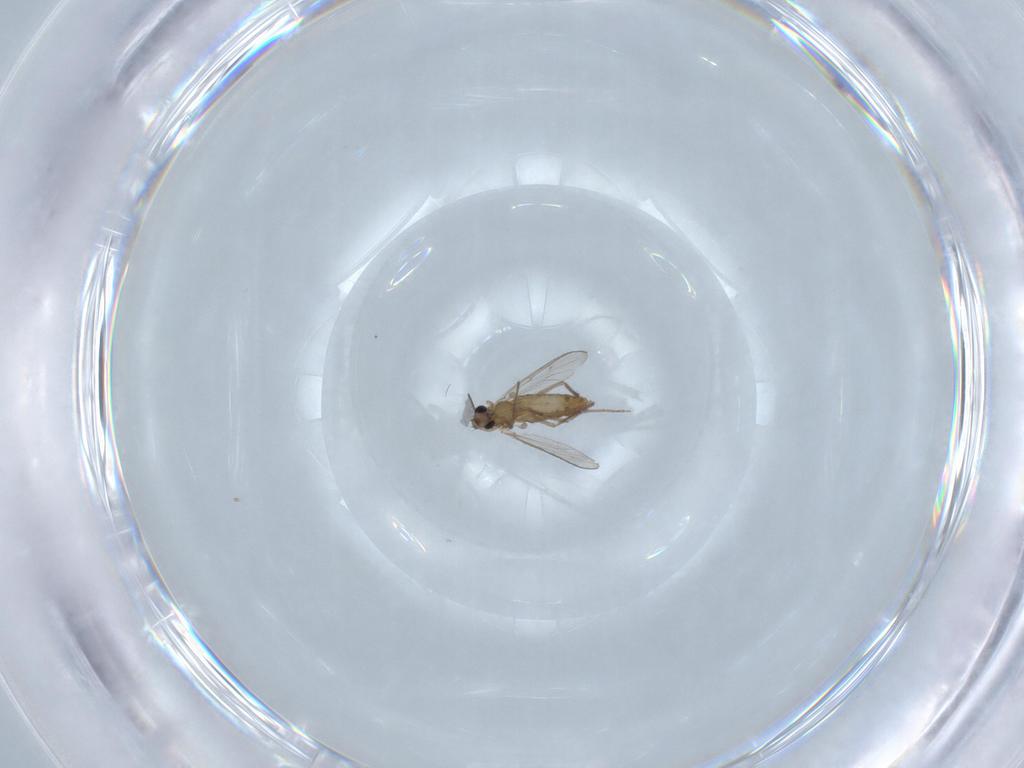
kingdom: Animalia
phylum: Arthropoda
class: Insecta
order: Diptera
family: Chironomidae
